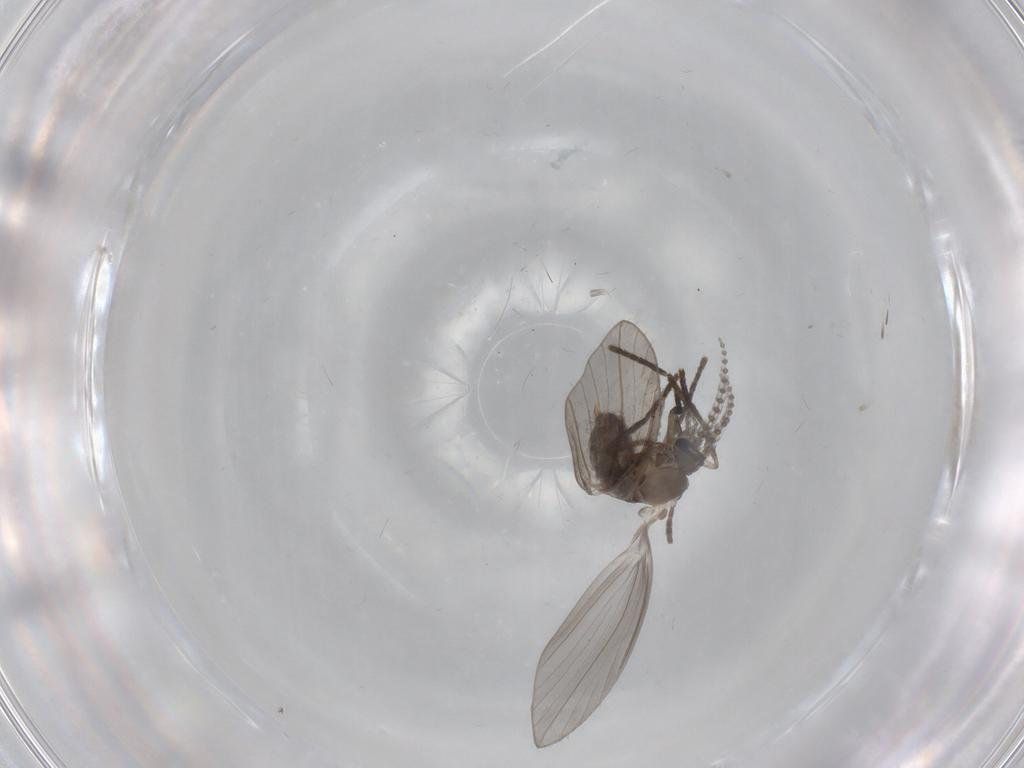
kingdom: Animalia
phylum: Arthropoda
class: Insecta
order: Diptera
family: Psychodidae
